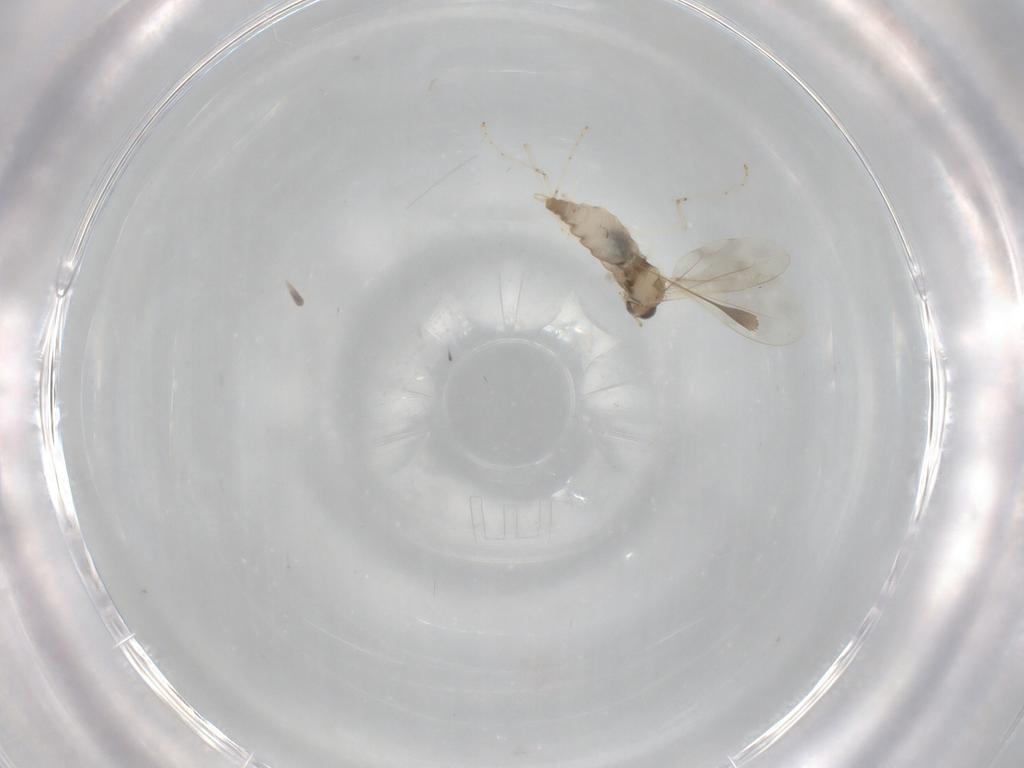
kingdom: Animalia
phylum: Arthropoda
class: Insecta
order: Diptera
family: Cecidomyiidae
